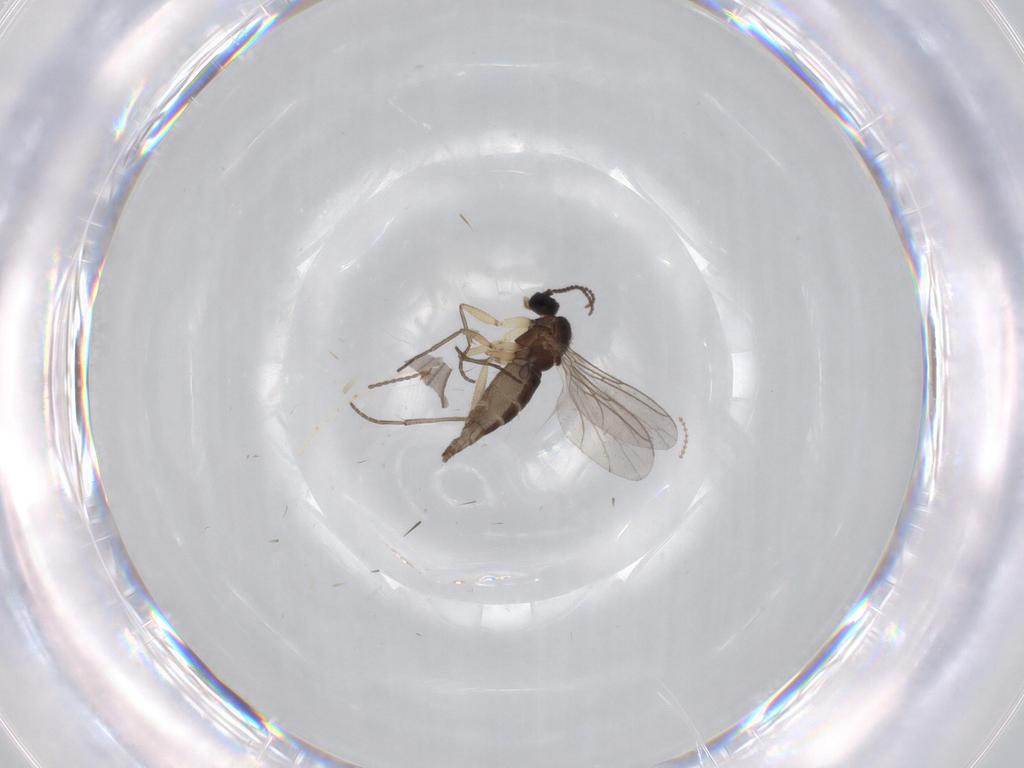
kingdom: Animalia
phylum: Arthropoda
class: Insecta
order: Diptera
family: Sciaridae
